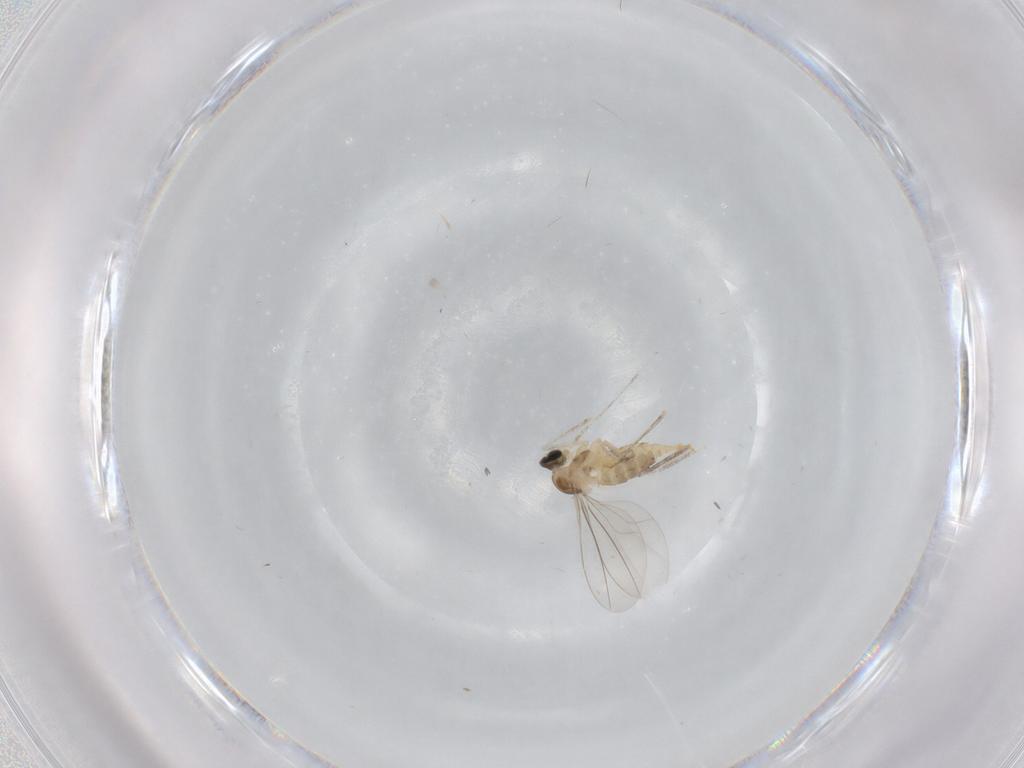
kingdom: Animalia
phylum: Arthropoda
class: Insecta
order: Diptera
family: Cecidomyiidae
